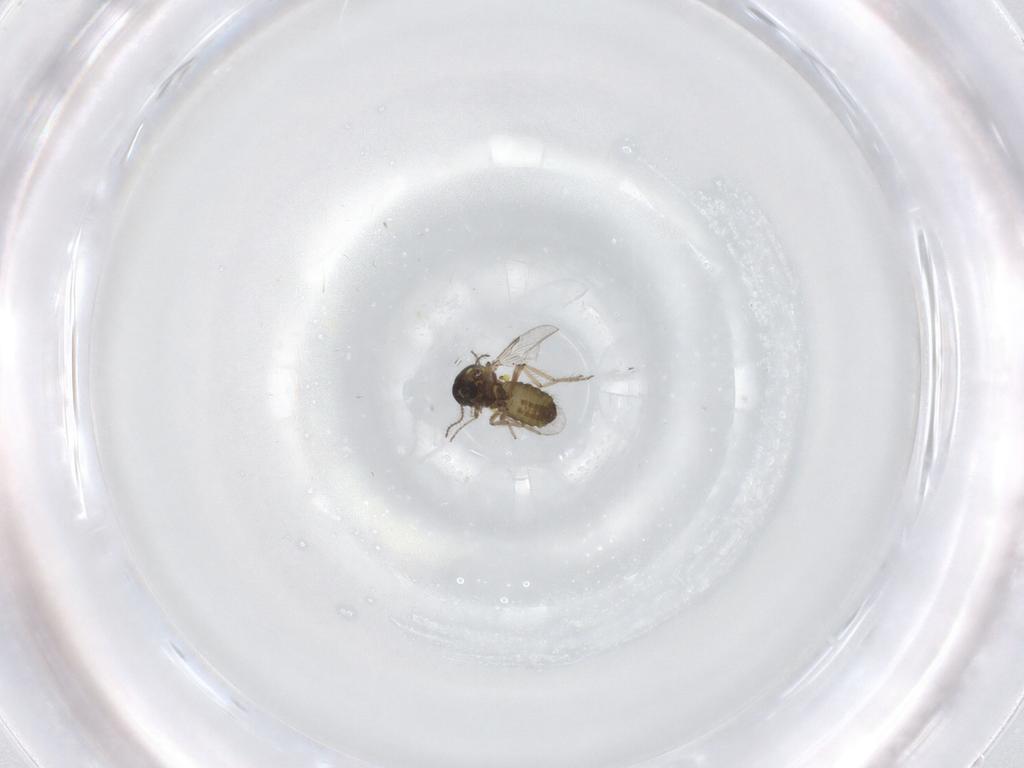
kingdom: Animalia
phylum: Arthropoda
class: Insecta
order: Diptera
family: Ceratopogonidae
